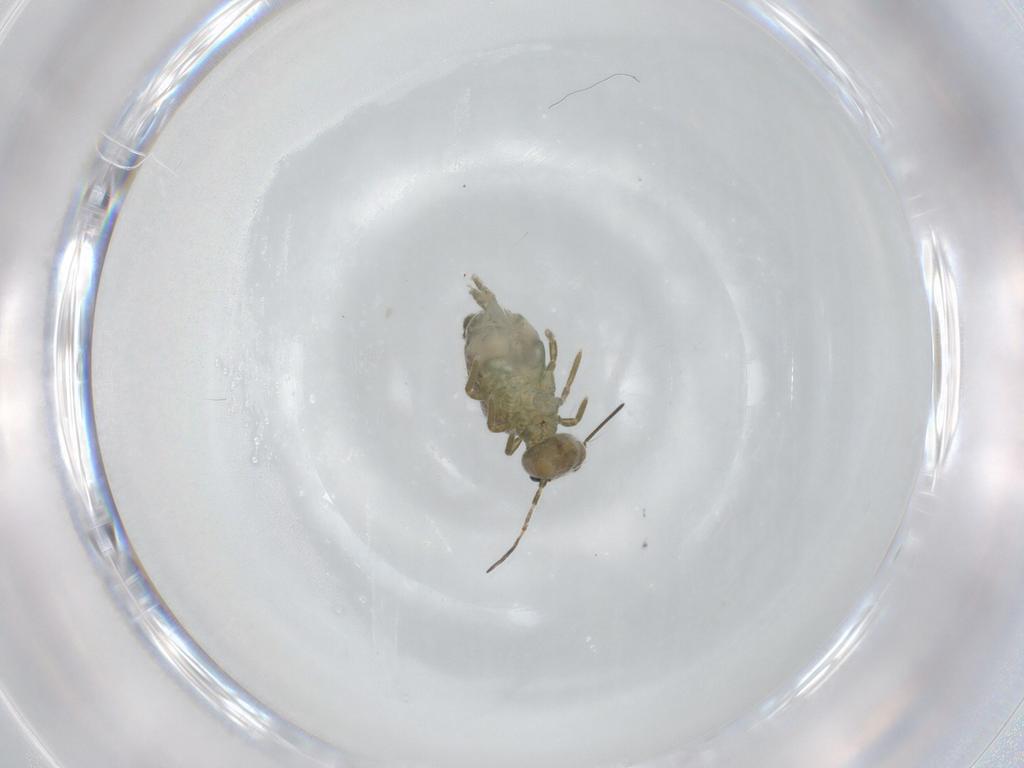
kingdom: Animalia
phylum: Arthropoda
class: Collembola
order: Symphypleona
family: Sminthuridae
